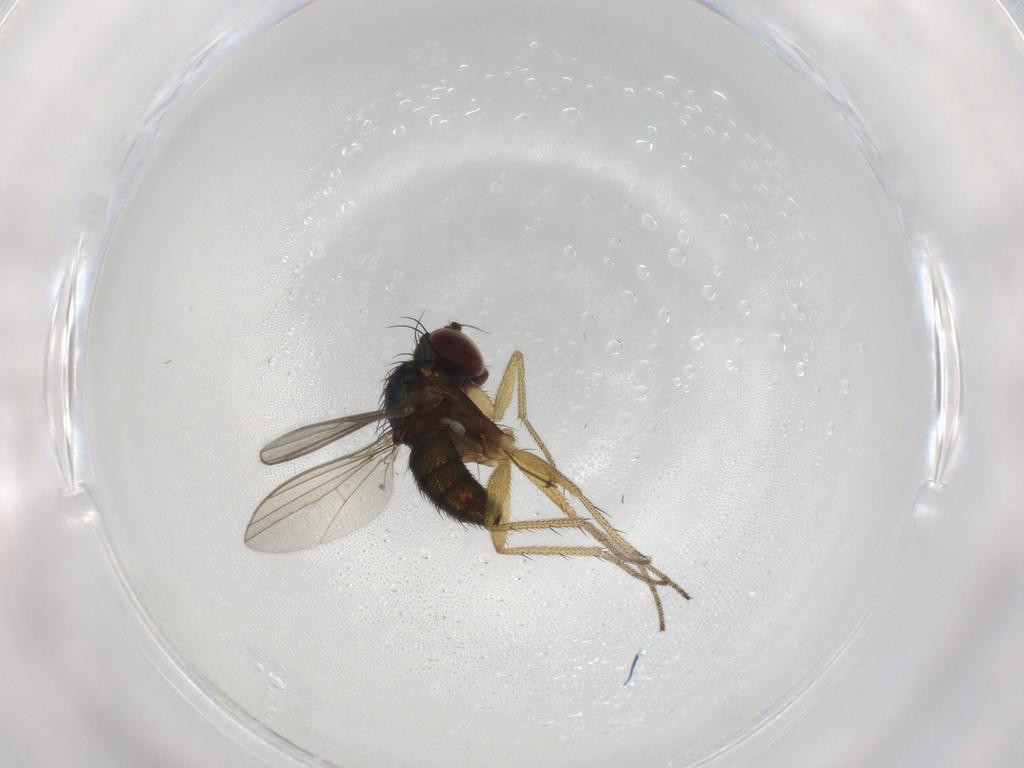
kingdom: Animalia
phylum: Arthropoda
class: Insecta
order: Diptera
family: Dolichopodidae
